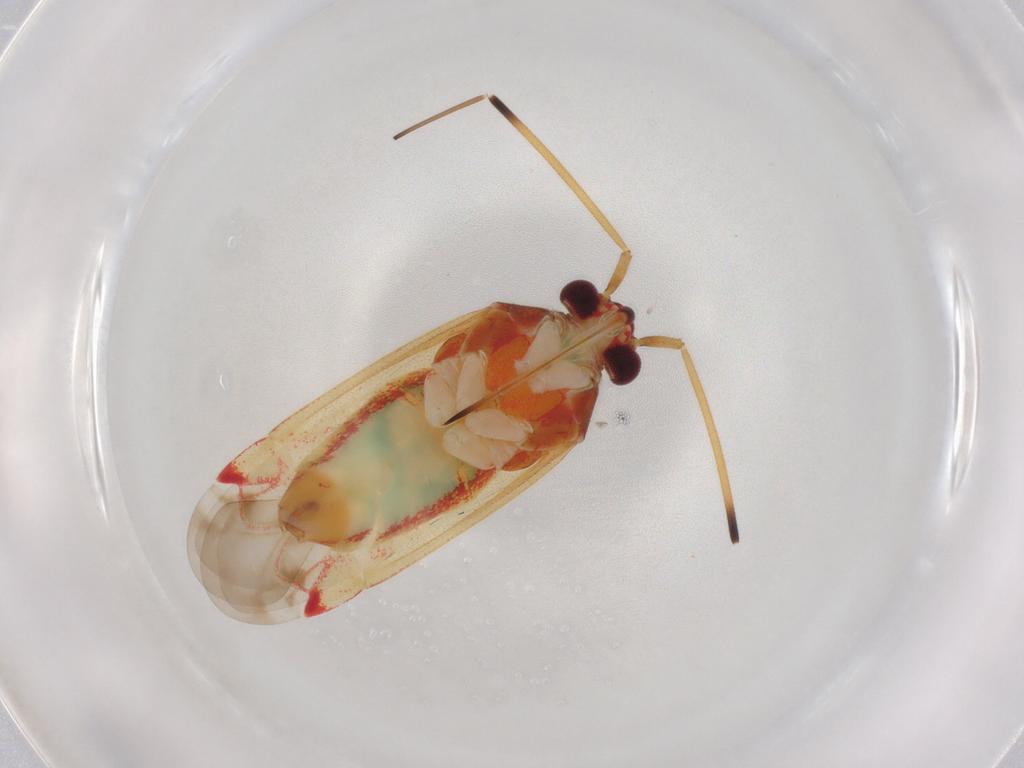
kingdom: Animalia
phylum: Arthropoda
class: Insecta
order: Hemiptera
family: Miridae
